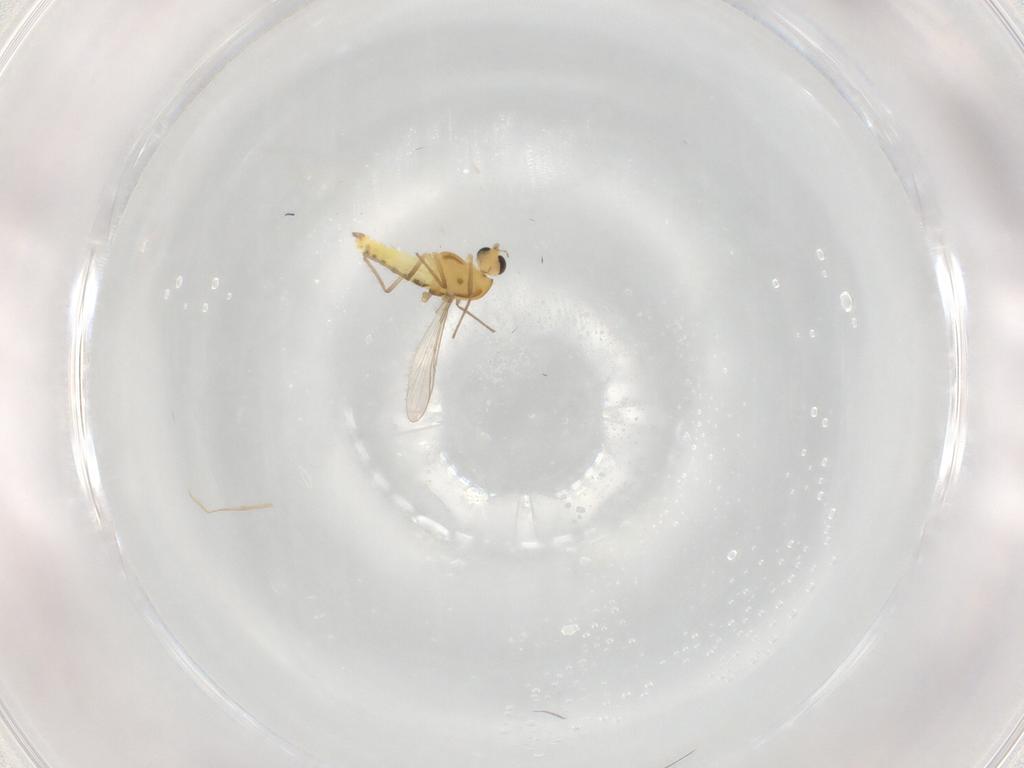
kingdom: Animalia
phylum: Arthropoda
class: Insecta
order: Diptera
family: Chironomidae
